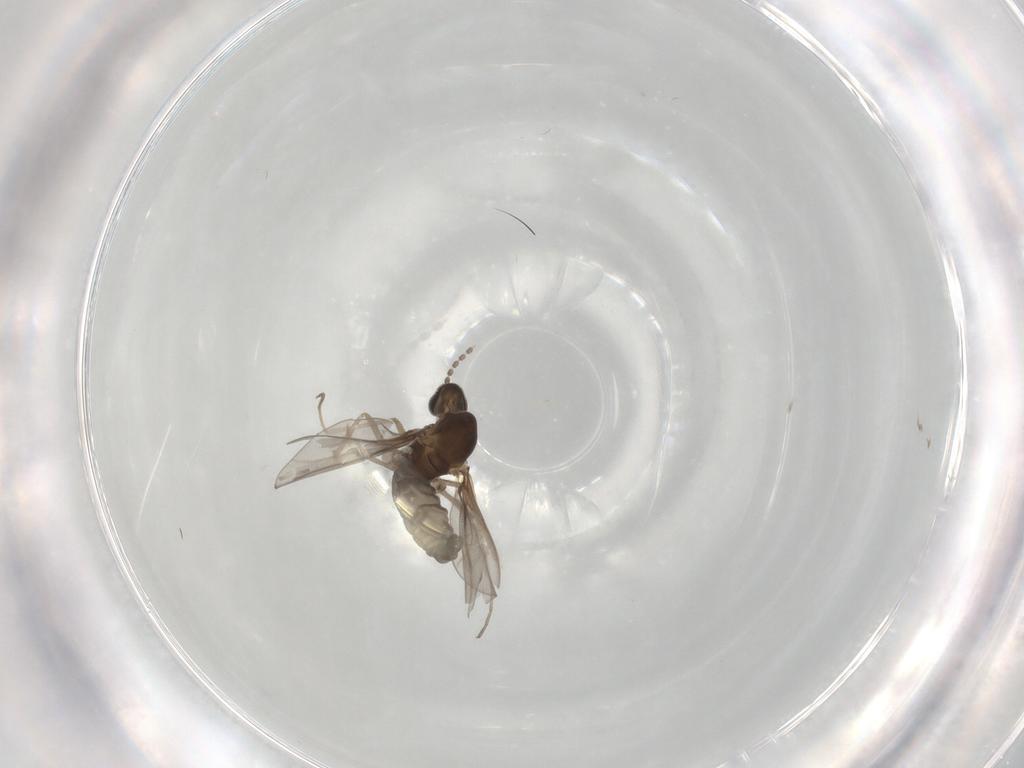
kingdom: Animalia
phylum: Arthropoda
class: Insecta
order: Diptera
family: Cecidomyiidae
